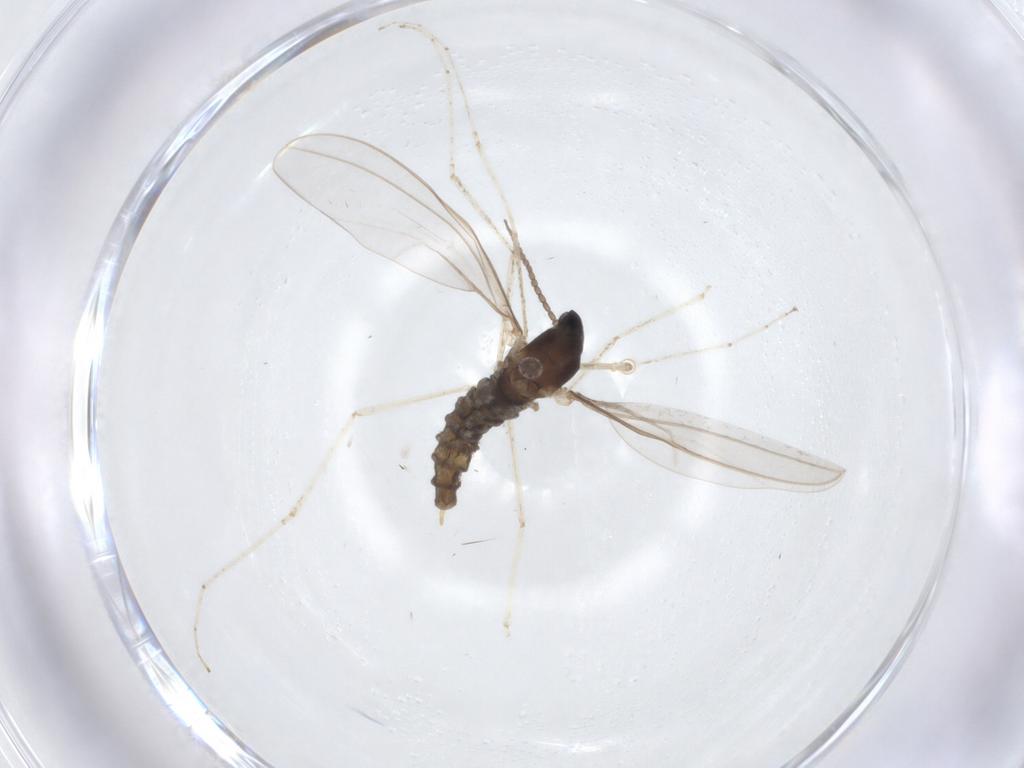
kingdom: Animalia
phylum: Arthropoda
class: Insecta
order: Diptera
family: Cecidomyiidae
